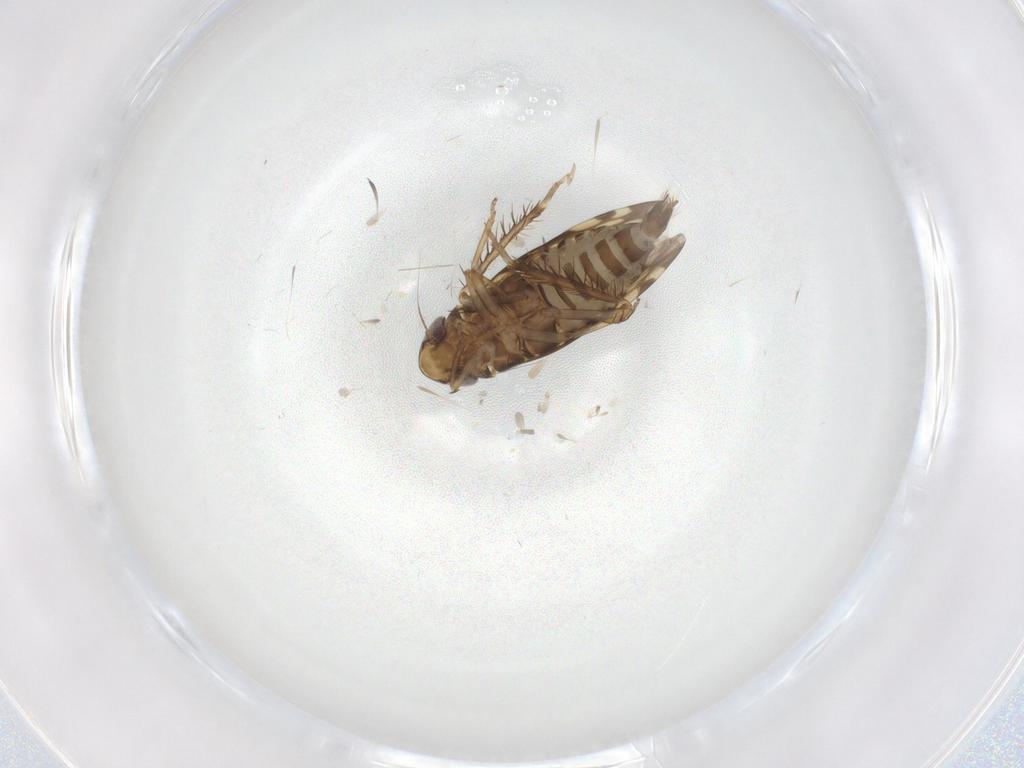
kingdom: Animalia
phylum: Arthropoda
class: Insecta
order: Hemiptera
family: Cicadellidae
